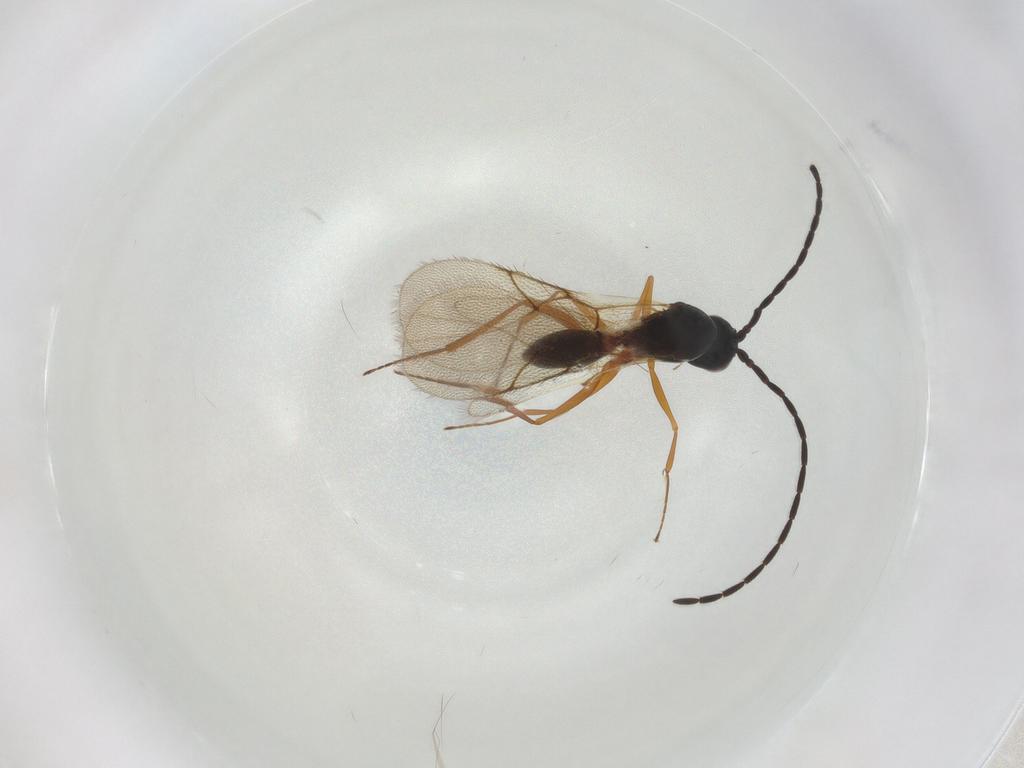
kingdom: Animalia
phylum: Arthropoda
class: Insecta
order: Hymenoptera
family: Figitidae
